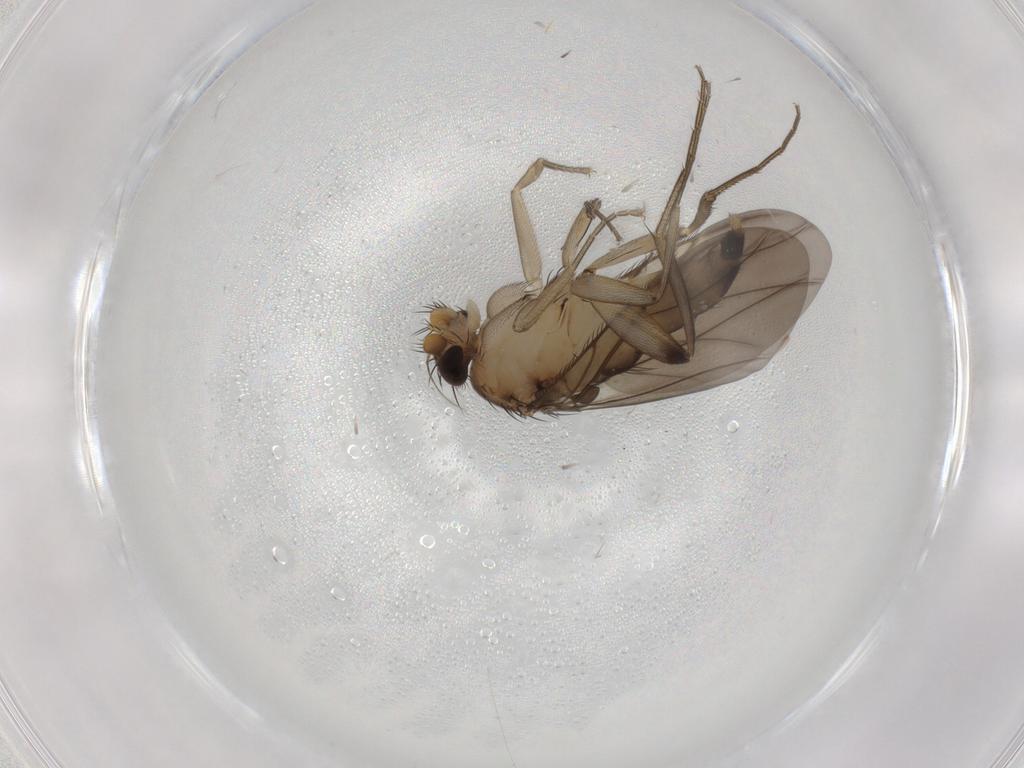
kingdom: Animalia
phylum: Arthropoda
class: Insecta
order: Diptera
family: Phoridae
